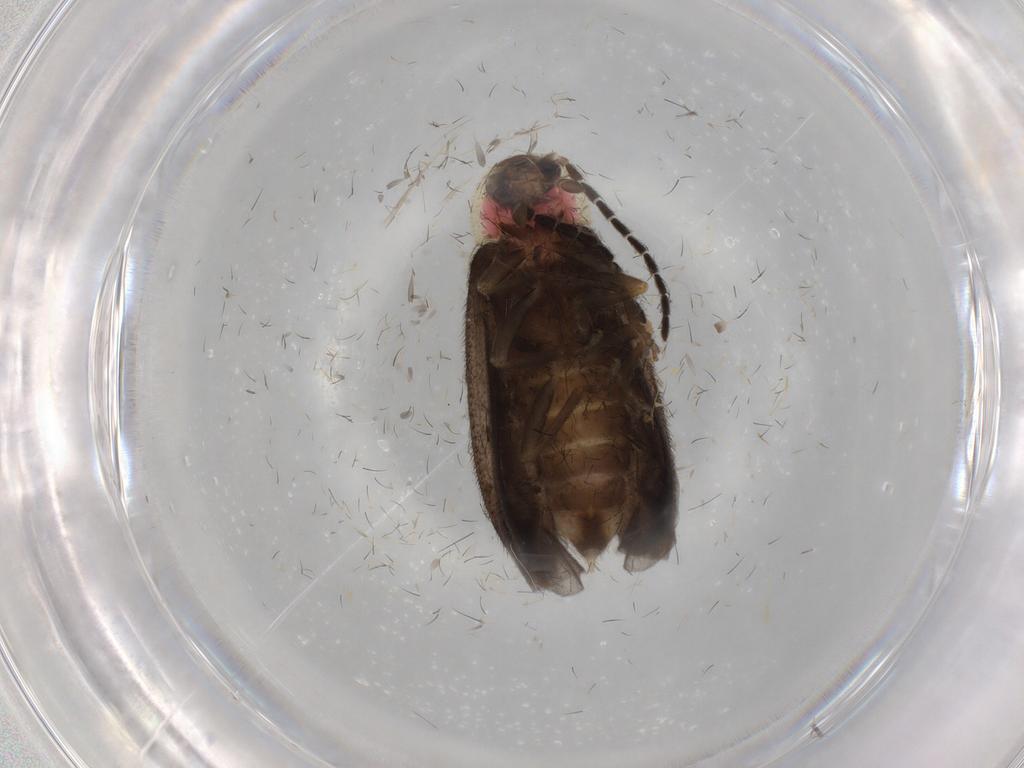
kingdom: Animalia
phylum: Arthropoda
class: Insecta
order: Coleoptera
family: Lampyridae
